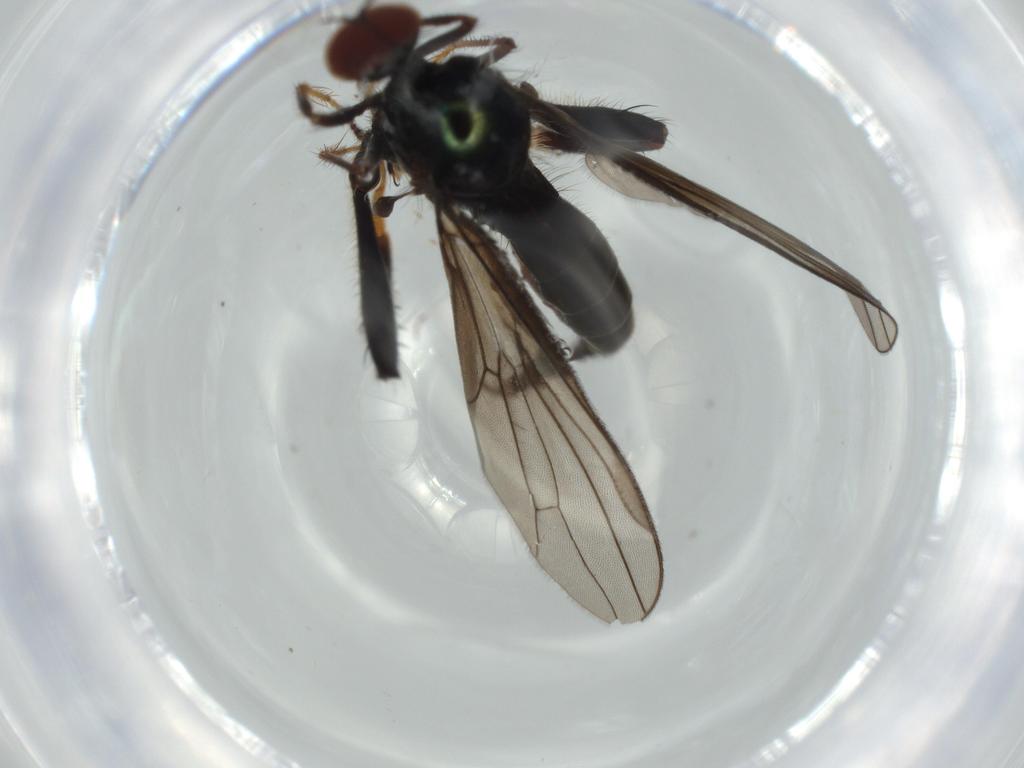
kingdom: Animalia
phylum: Arthropoda
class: Insecta
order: Diptera
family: Hybotidae
